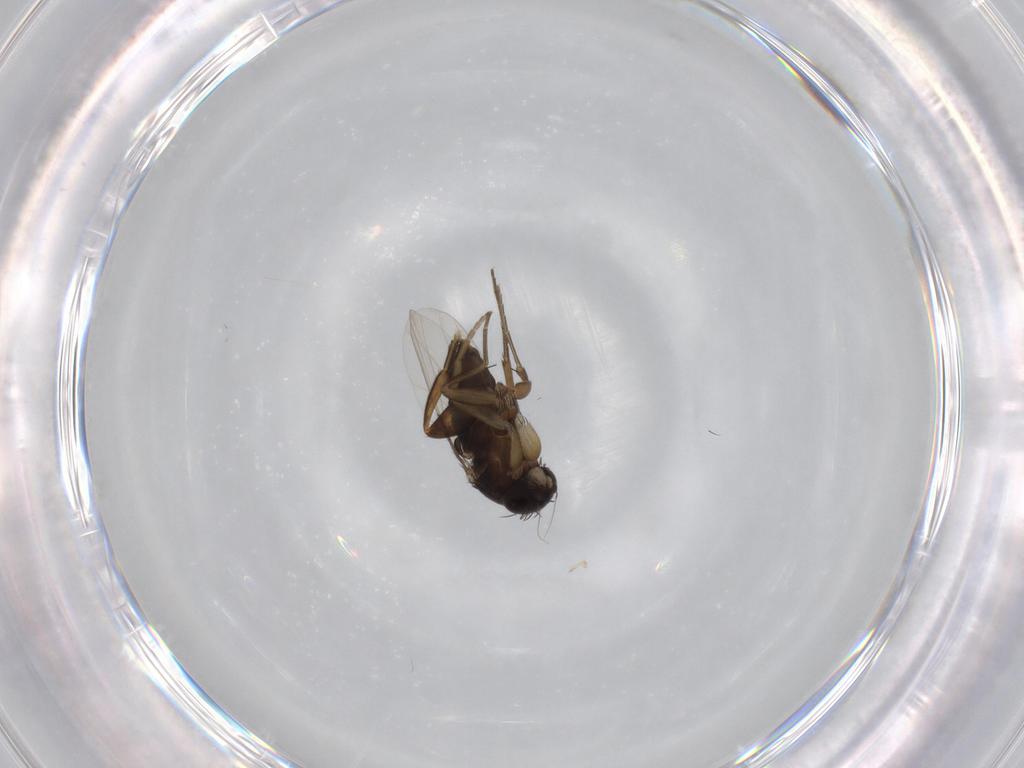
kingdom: Animalia
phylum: Arthropoda
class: Insecta
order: Diptera
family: Phoridae
